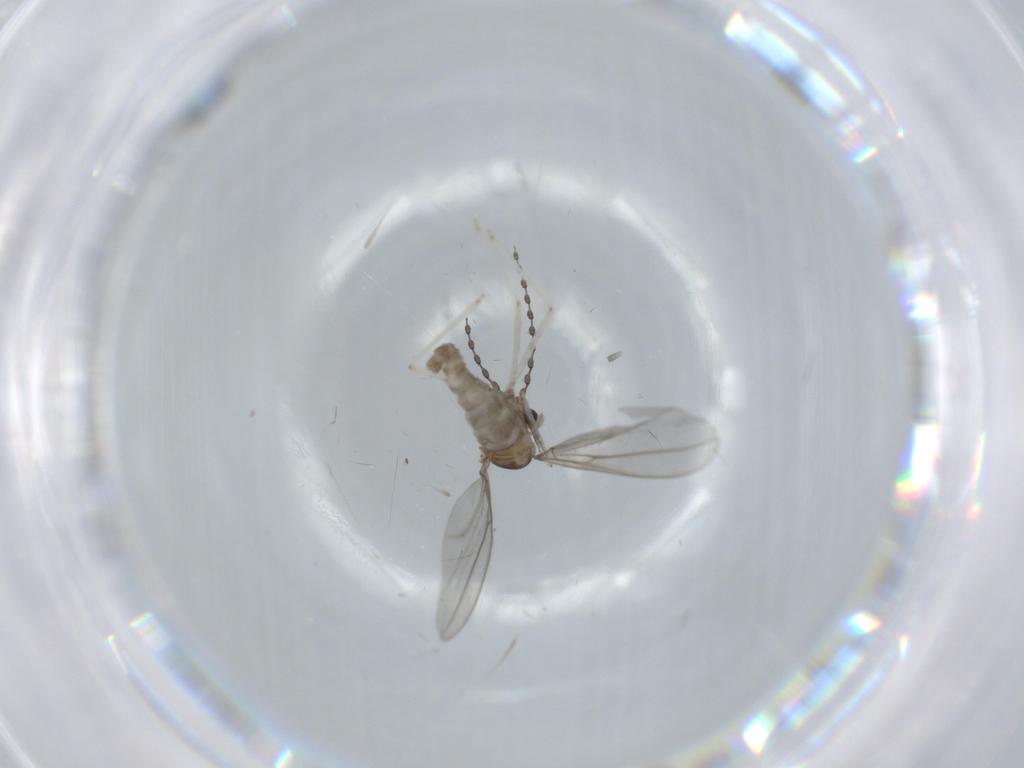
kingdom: Animalia
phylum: Arthropoda
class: Insecta
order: Diptera
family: Cecidomyiidae
